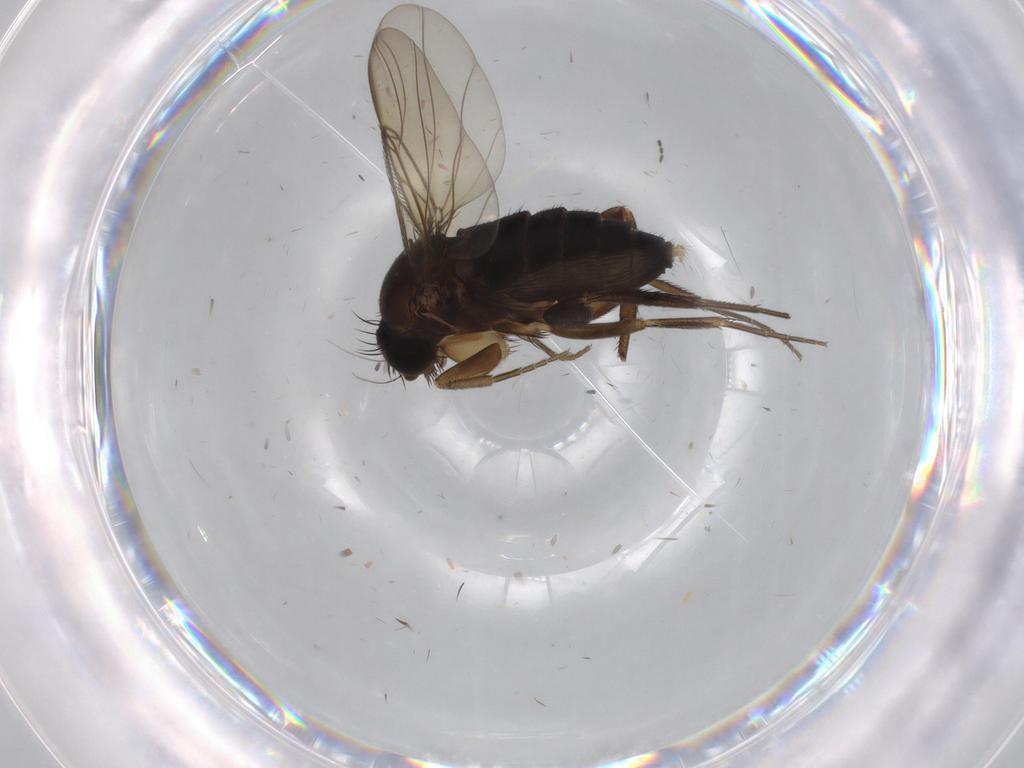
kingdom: Animalia
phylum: Arthropoda
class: Insecta
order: Diptera
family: Phoridae
